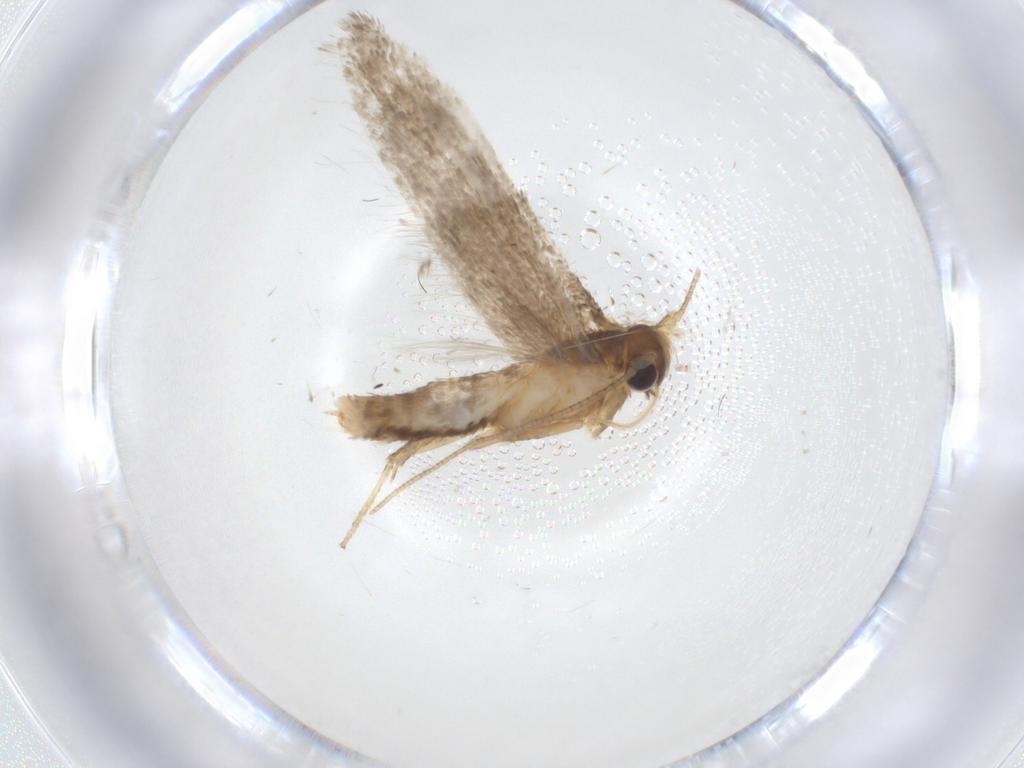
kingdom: Animalia
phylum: Arthropoda
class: Insecta
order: Lepidoptera
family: Blastobasidae
